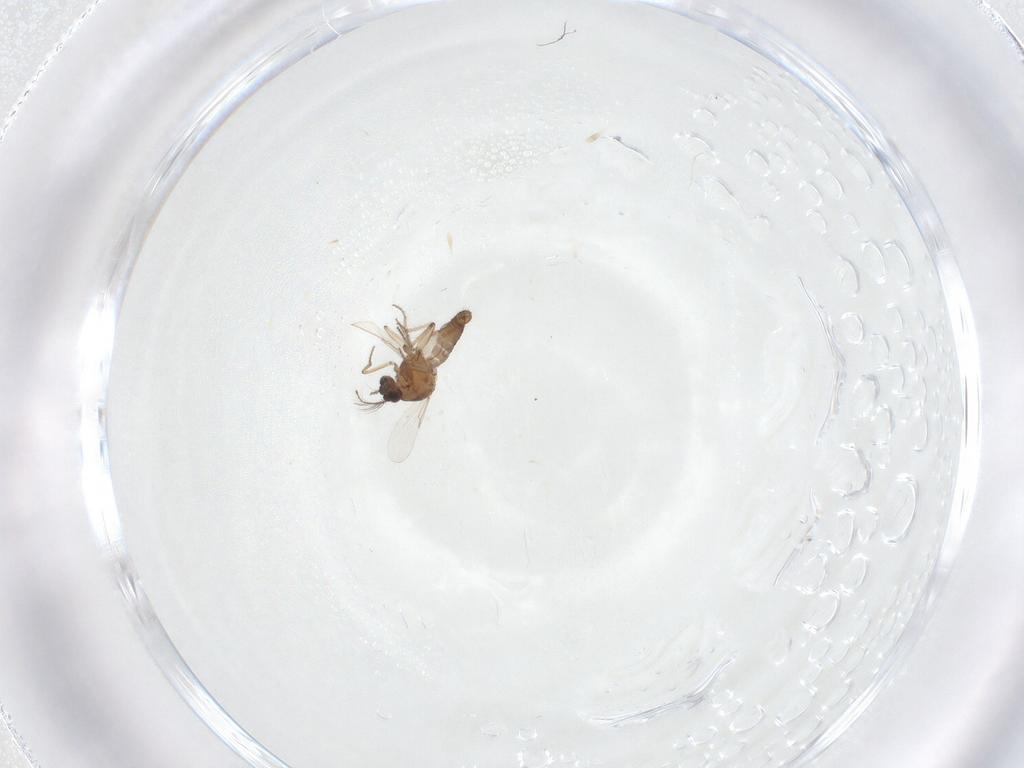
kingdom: Animalia
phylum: Arthropoda
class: Insecta
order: Diptera
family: Ceratopogonidae
